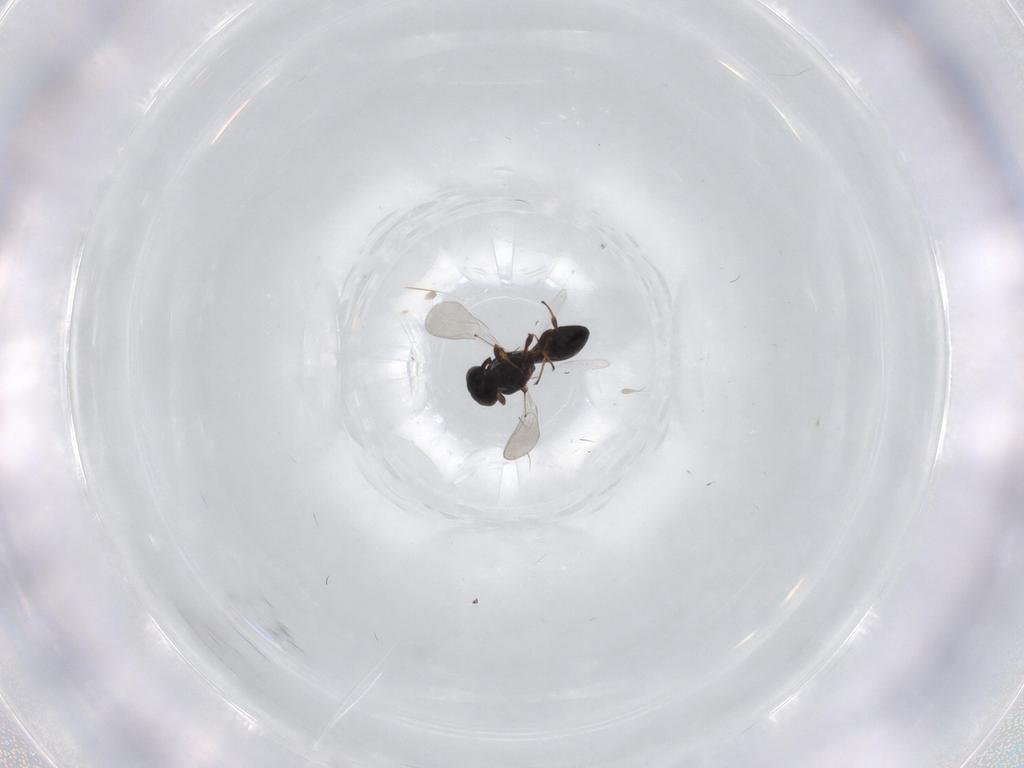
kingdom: Animalia
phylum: Arthropoda
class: Insecta
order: Hymenoptera
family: Platygastridae
